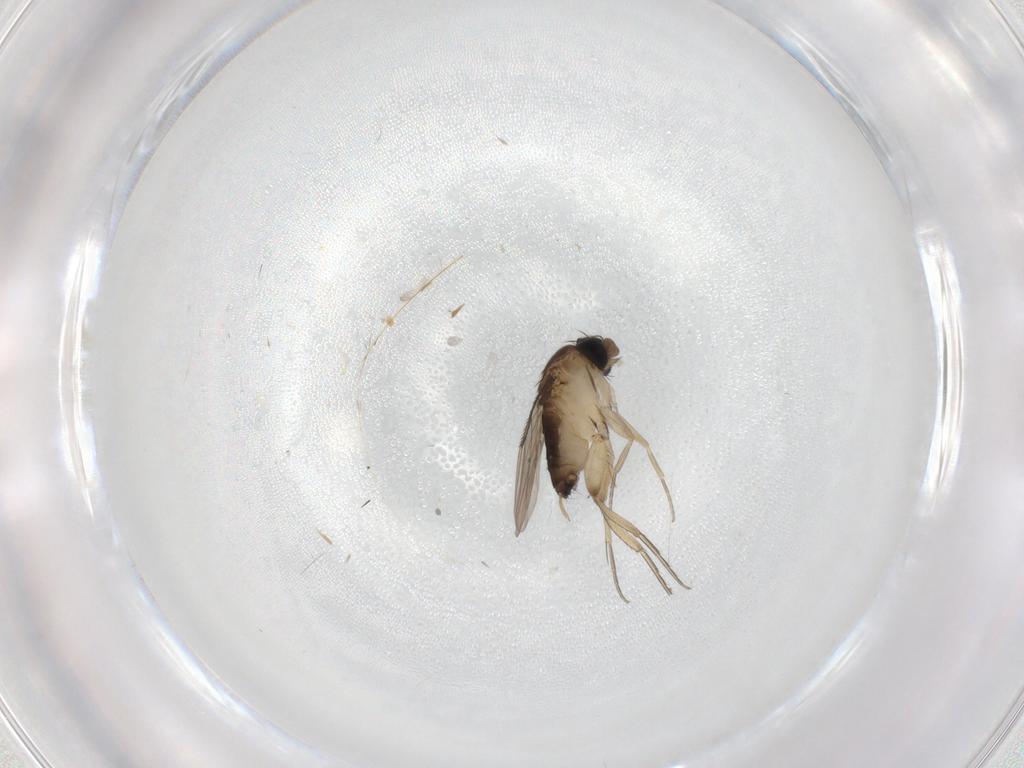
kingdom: Animalia
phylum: Arthropoda
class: Insecta
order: Diptera
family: Phoridae
